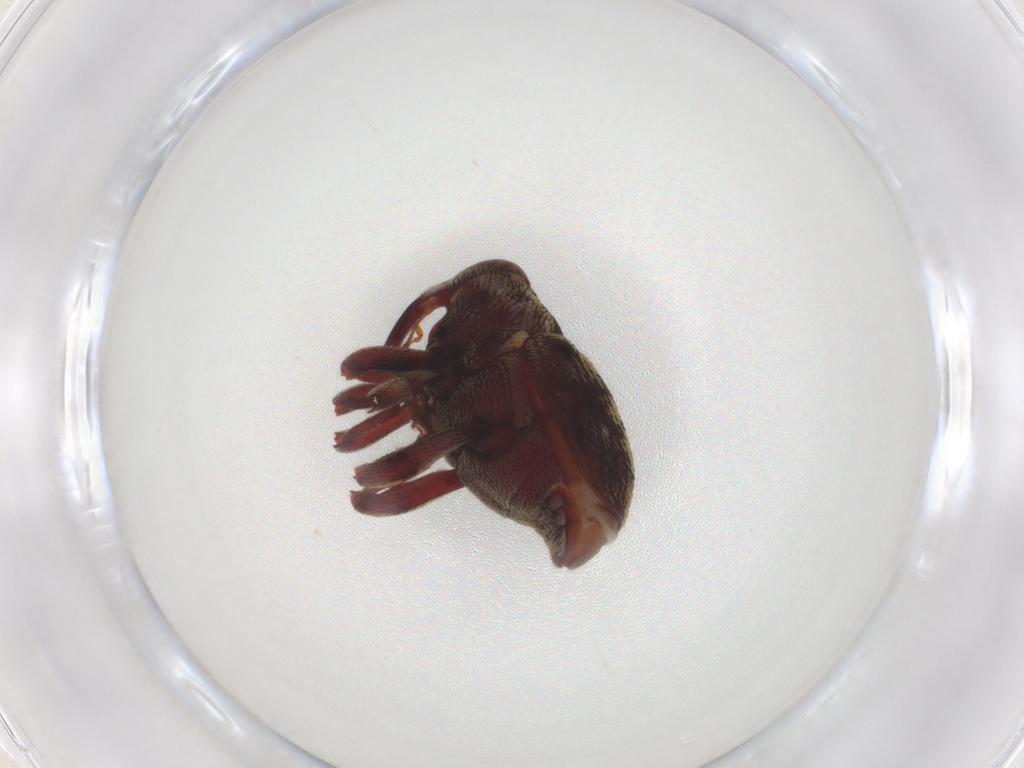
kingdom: Animalia
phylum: Arthropoda
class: Insecta
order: Coleoptera
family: Curculionidae
